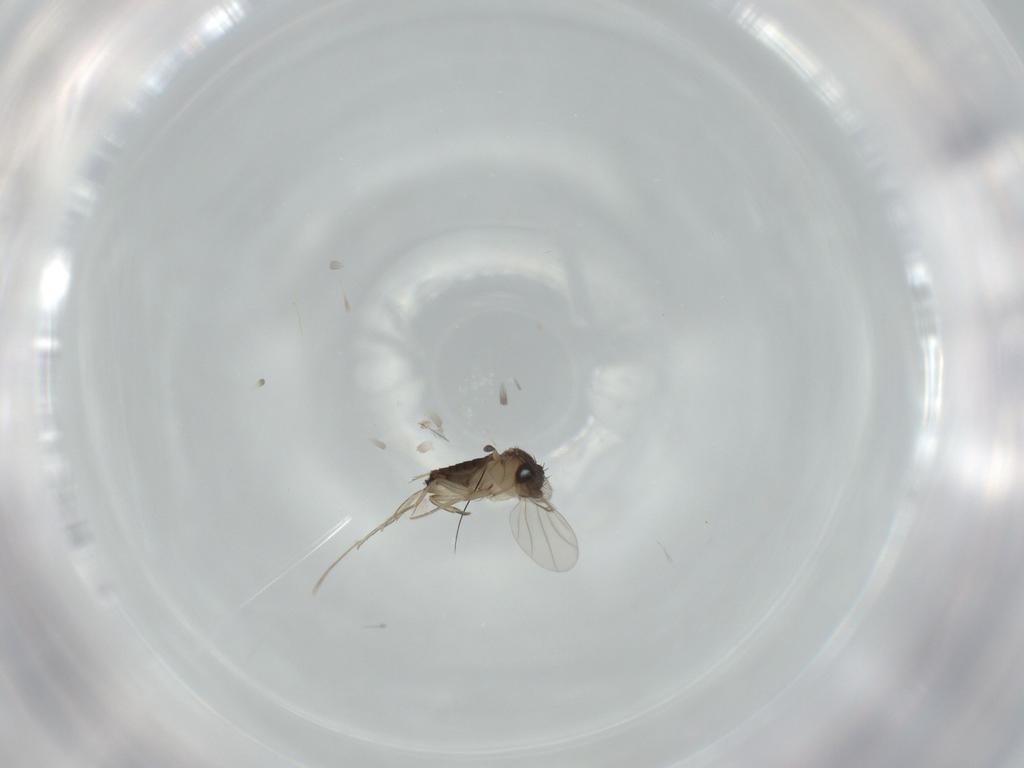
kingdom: Animalia
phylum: Arthropoda
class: Insecta
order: Diptera
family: Phoridae
